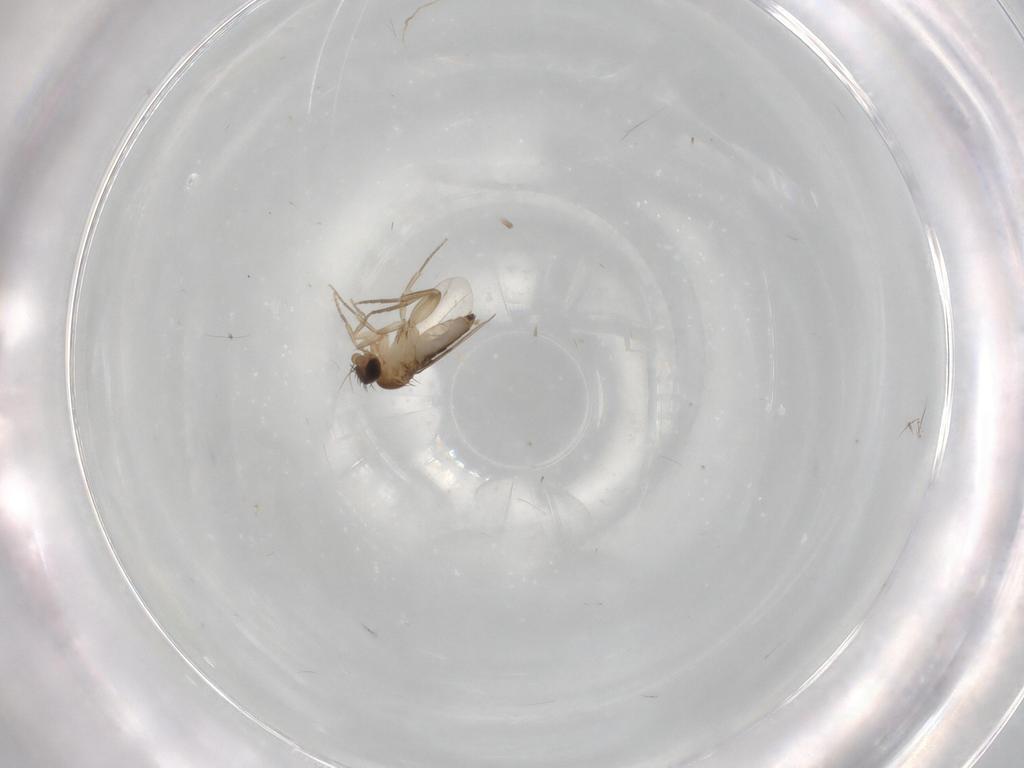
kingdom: Animalia
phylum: Arthropoda
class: Insecta
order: Diptera
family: Phoridae
